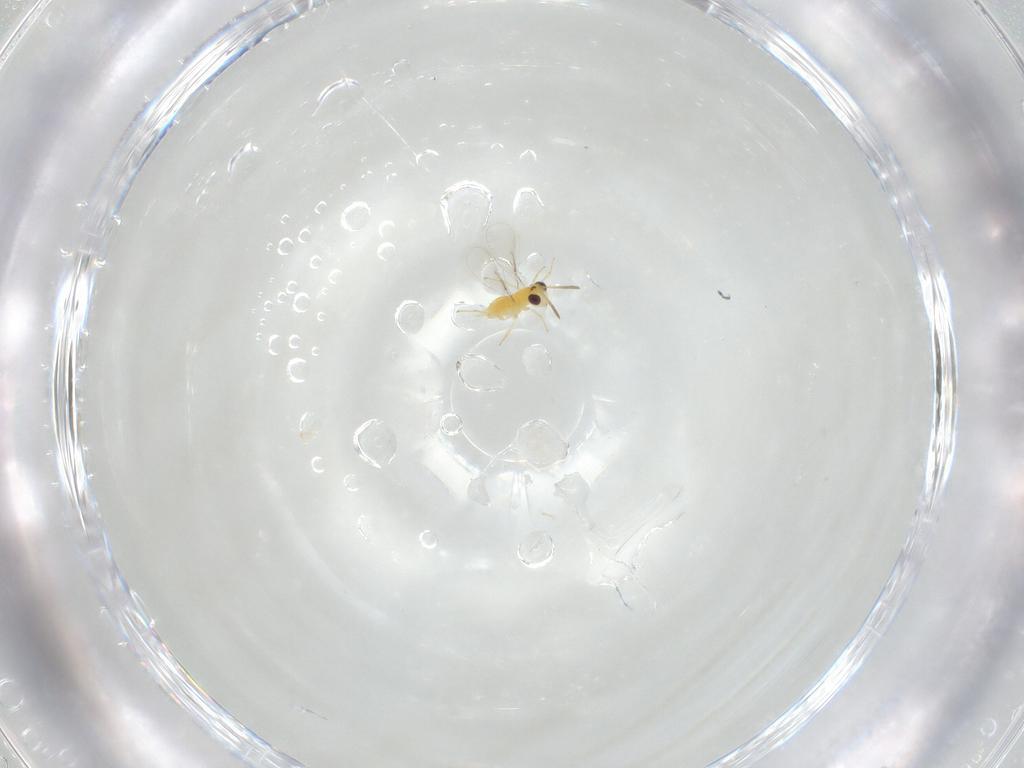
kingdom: Animalia
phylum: Arthropoda
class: Insecta
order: Hymenoptera
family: Aphelinidae
